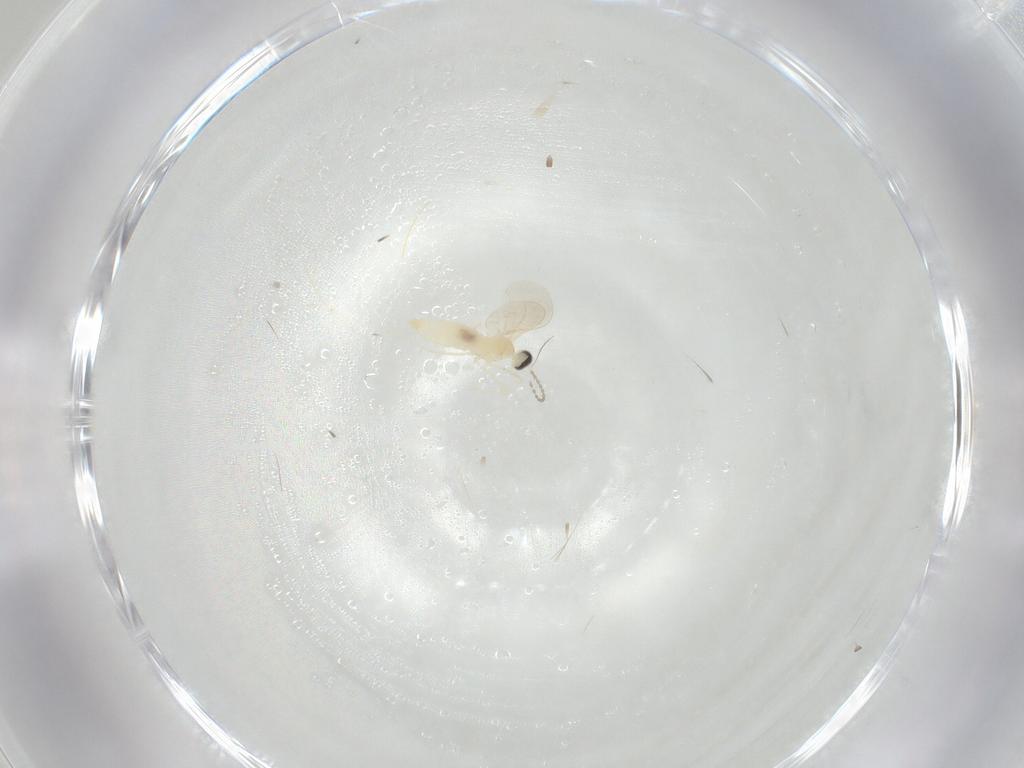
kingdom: Animalia
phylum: Arthropoda
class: Insecta
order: Diptera
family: Cecidomyiidae
